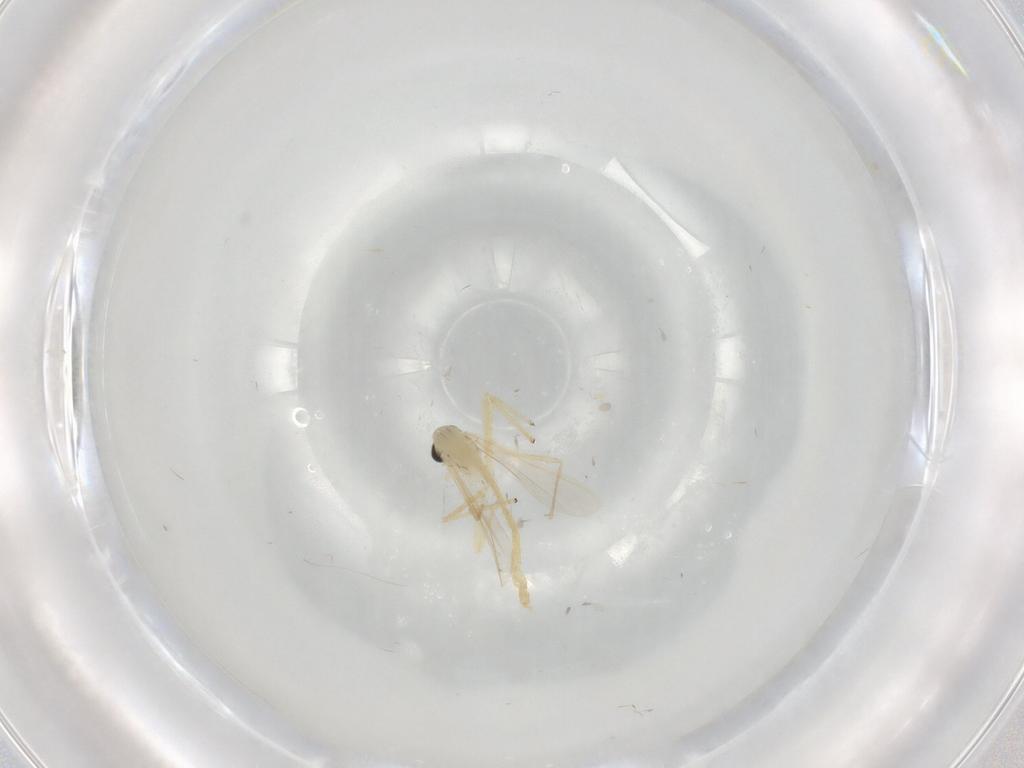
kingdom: Animalia
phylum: Arthropoda
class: Insecta
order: Diptera
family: Chironomidae
